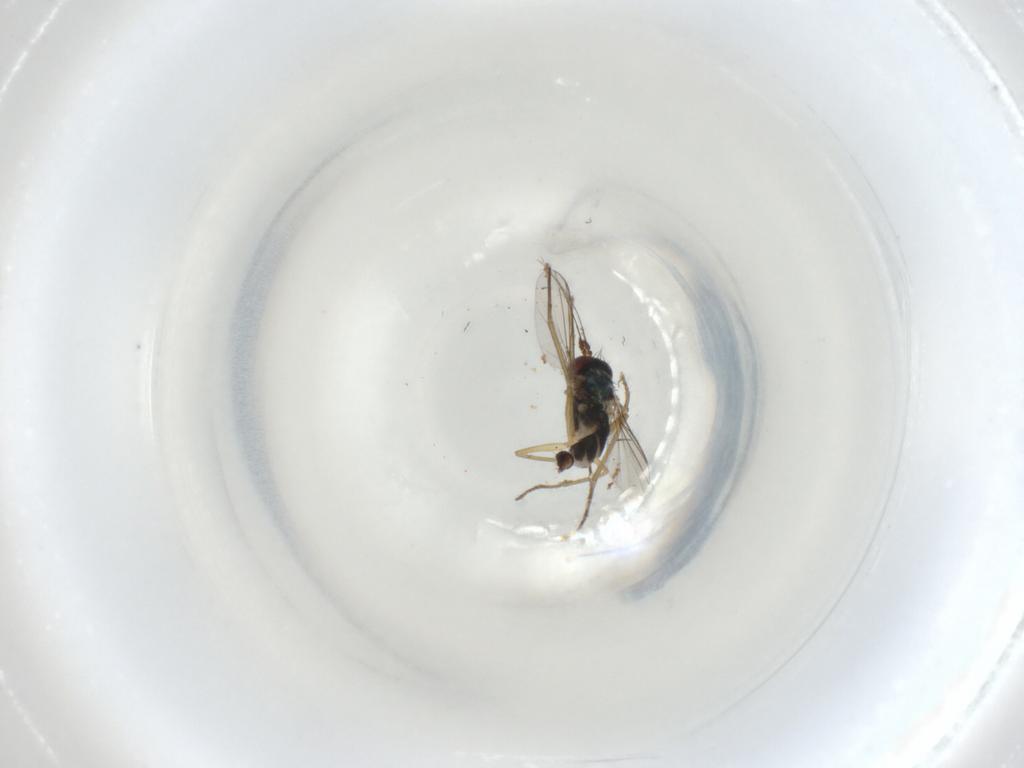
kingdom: Animalia
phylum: Arthropoda
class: Insecta
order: Diptera
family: Dolichopodidae
